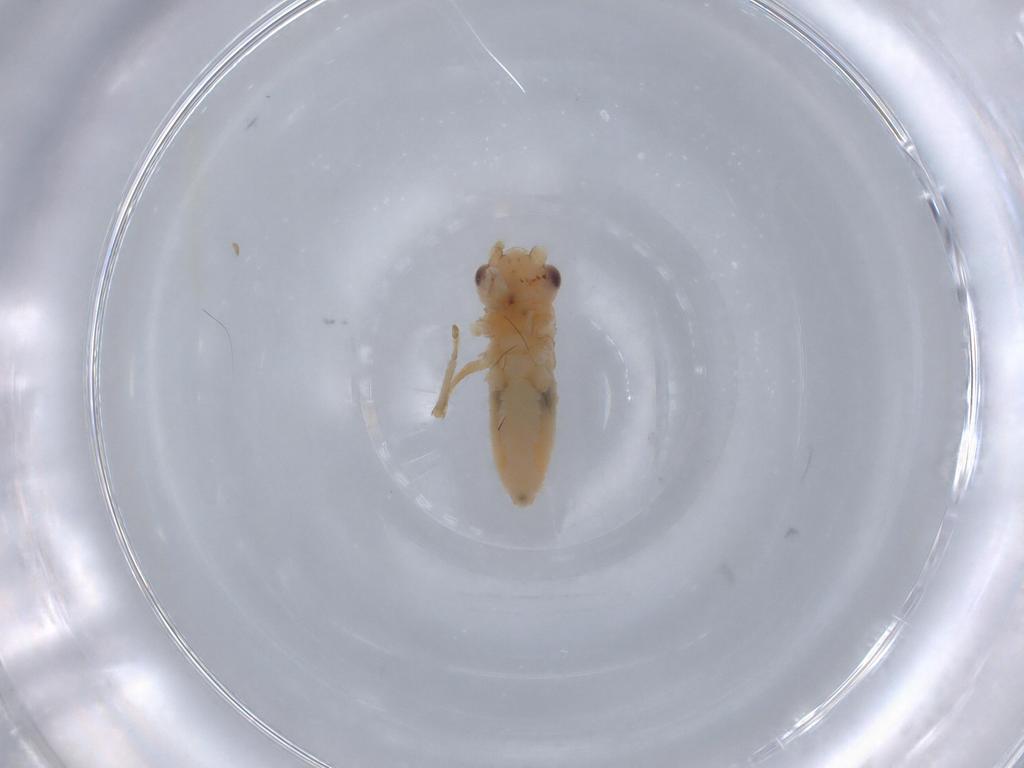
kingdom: Animalia
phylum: Arthropoda
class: Insecta
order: Orthoptera
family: Trigonidiidae
